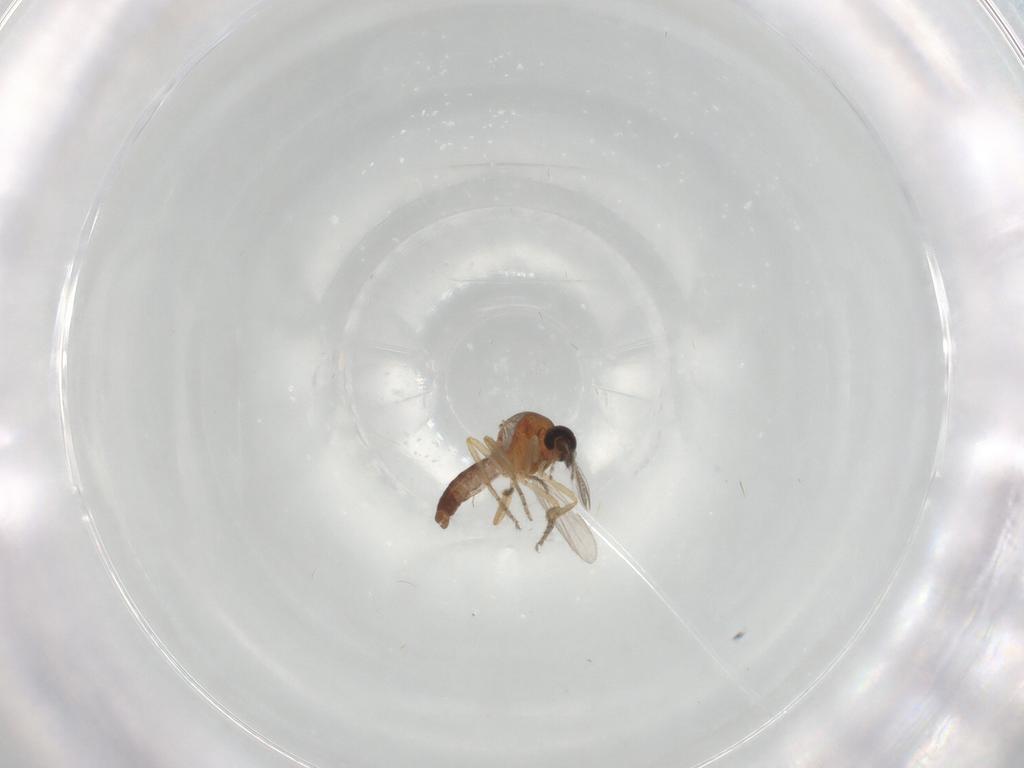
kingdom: Animalia
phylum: Arthropoda
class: Insecta
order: Diptera
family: Ceratopogonidae
